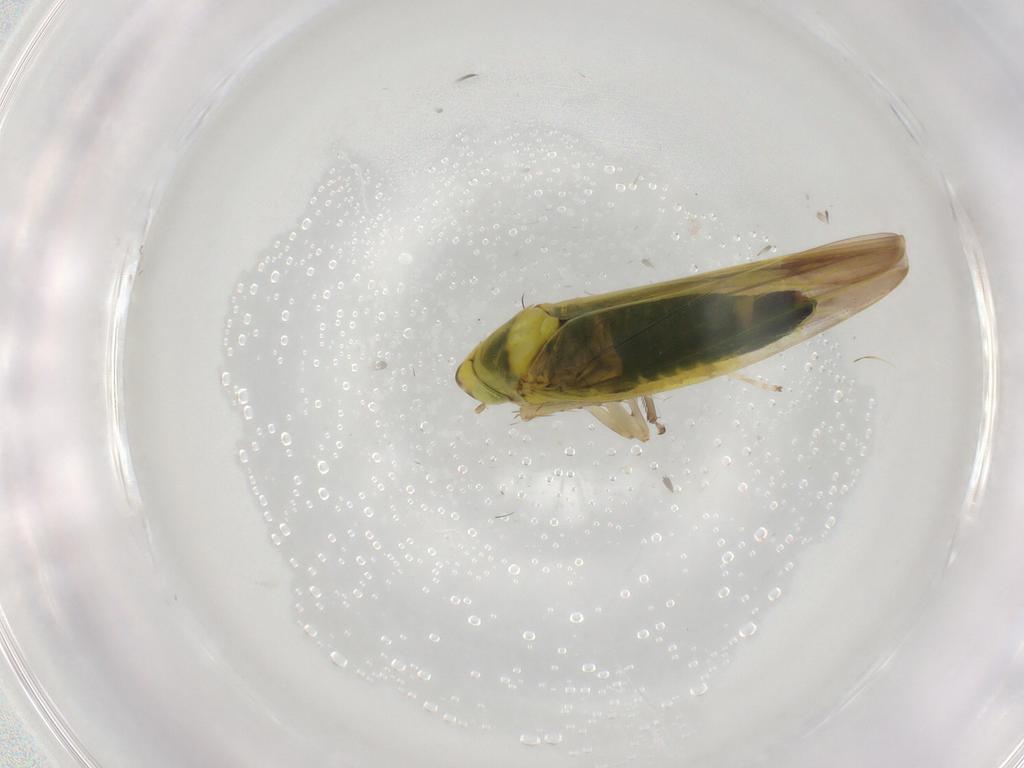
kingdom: Animalia
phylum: Arthropoda
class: Insecta
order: Hemiptera
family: Cicadellidae
